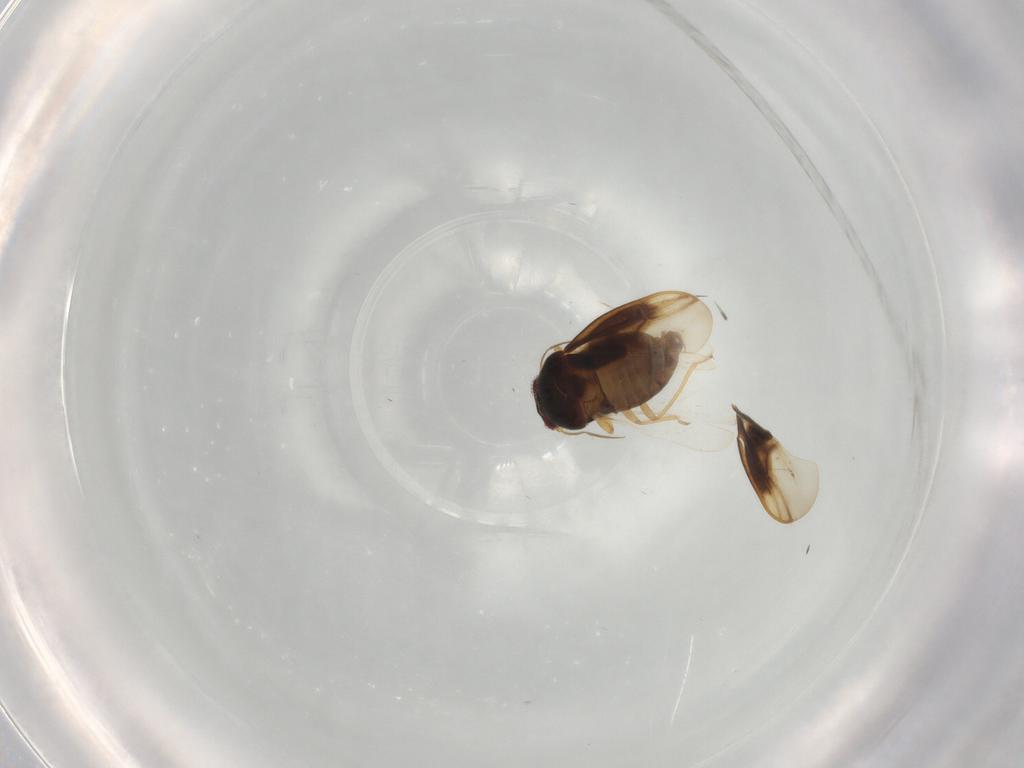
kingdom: Animalia
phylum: Arthropoda
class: Insecta
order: Hemiptera
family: Schizopteridae
